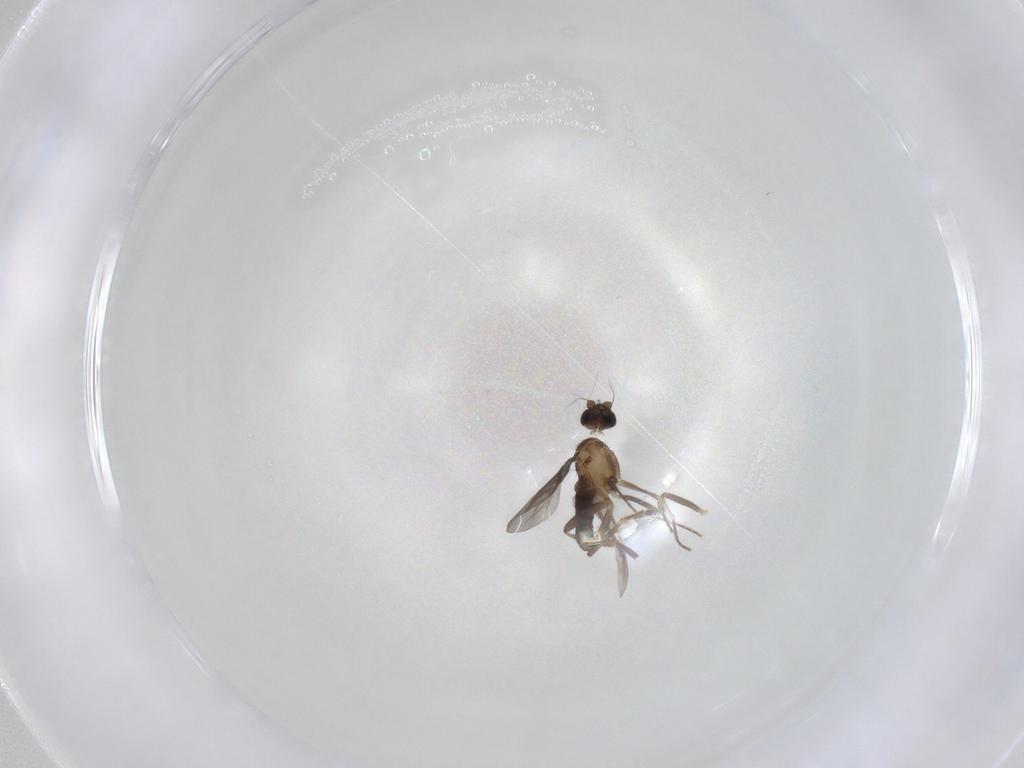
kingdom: Animalia
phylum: Arthropoda
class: Insecta
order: Diptera
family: Phoridae
